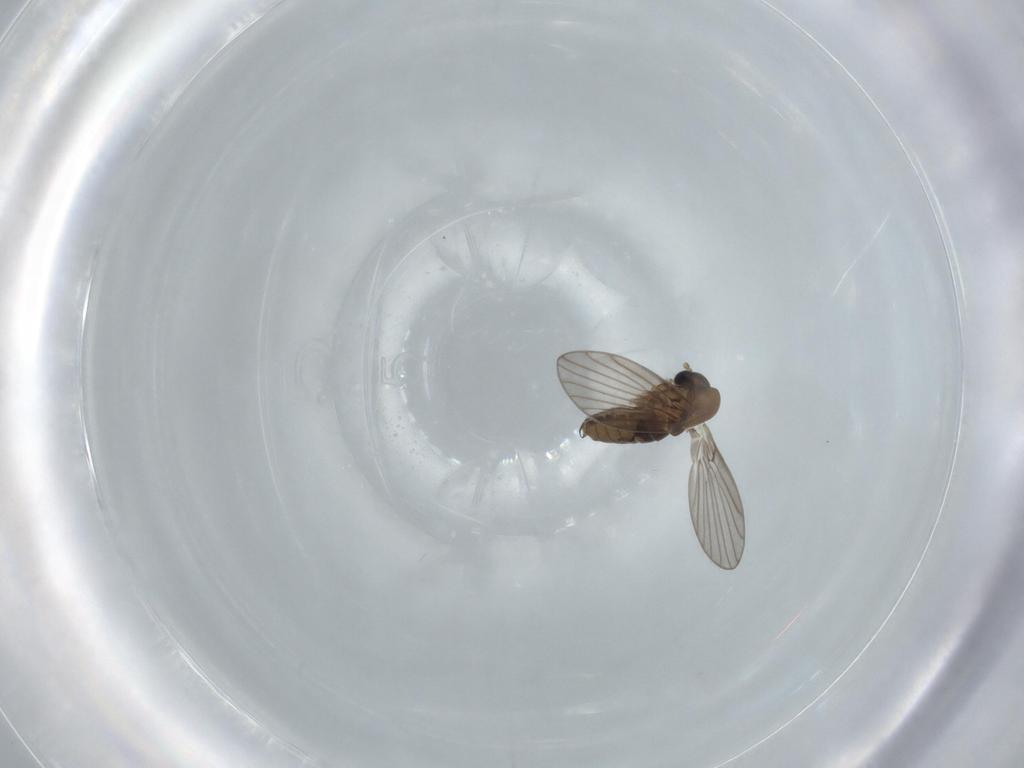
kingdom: Animalia
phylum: Arthropoda
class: Insecta
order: Diptera
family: Psychodidae
